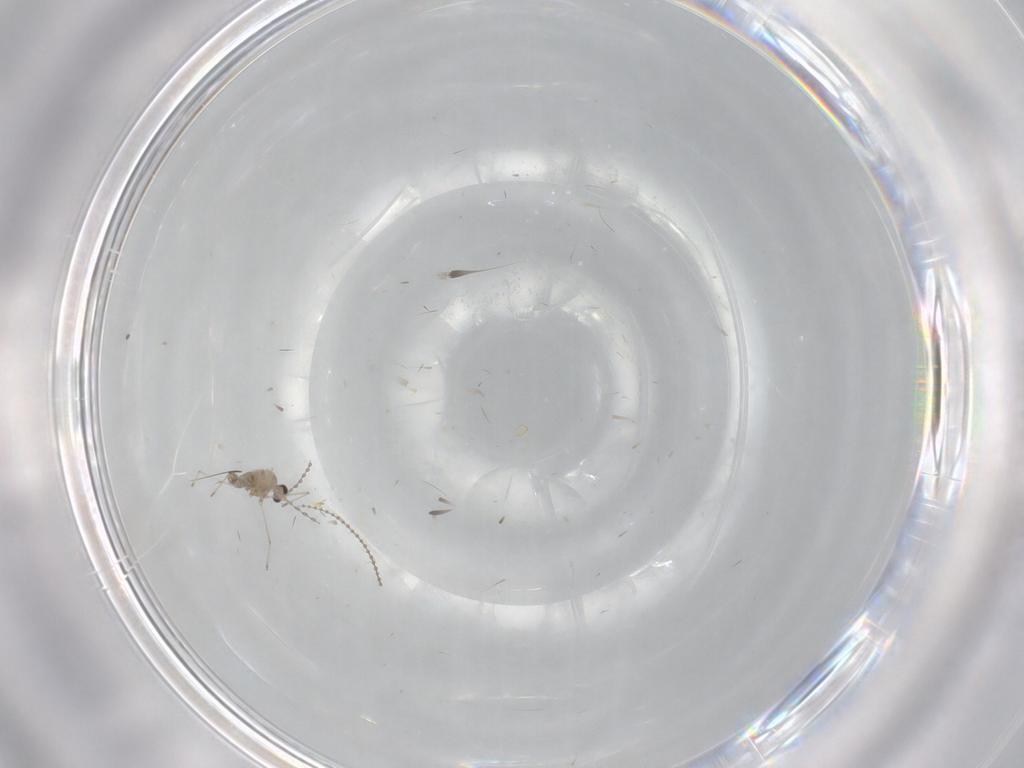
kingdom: Animalia
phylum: Arthropoda
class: Insecta
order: Diptera
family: Cecidomyiidae
